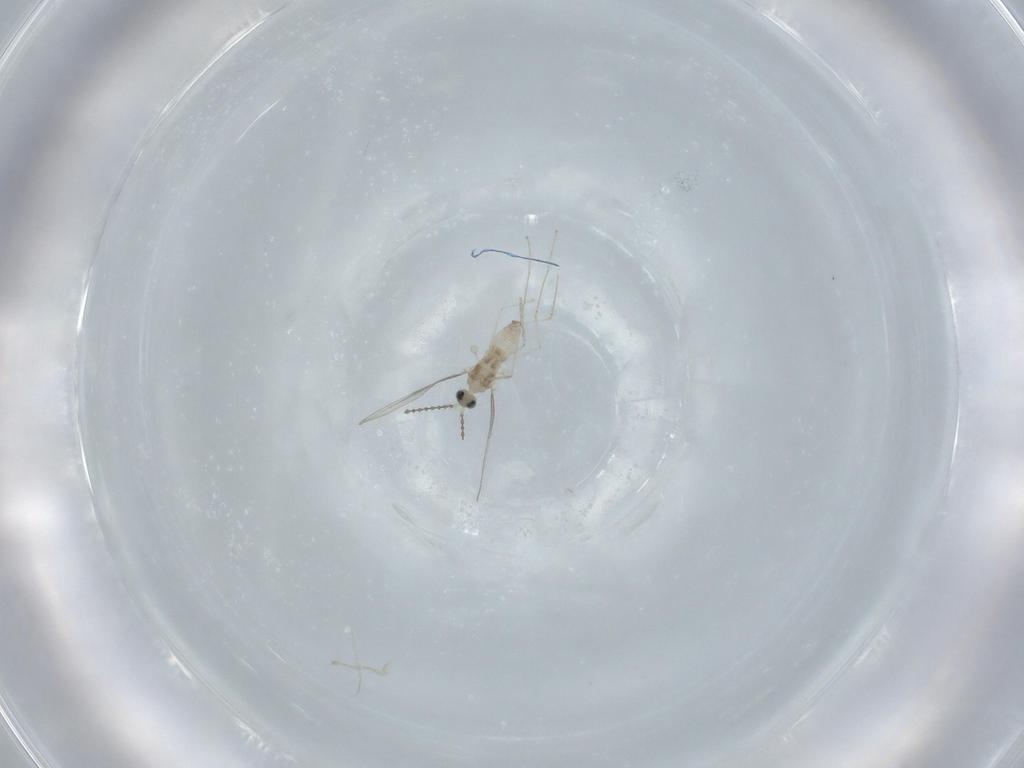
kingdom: Animalia
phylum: Arthropoda
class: Insecta
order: Diptera
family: Cecidomyiidae
